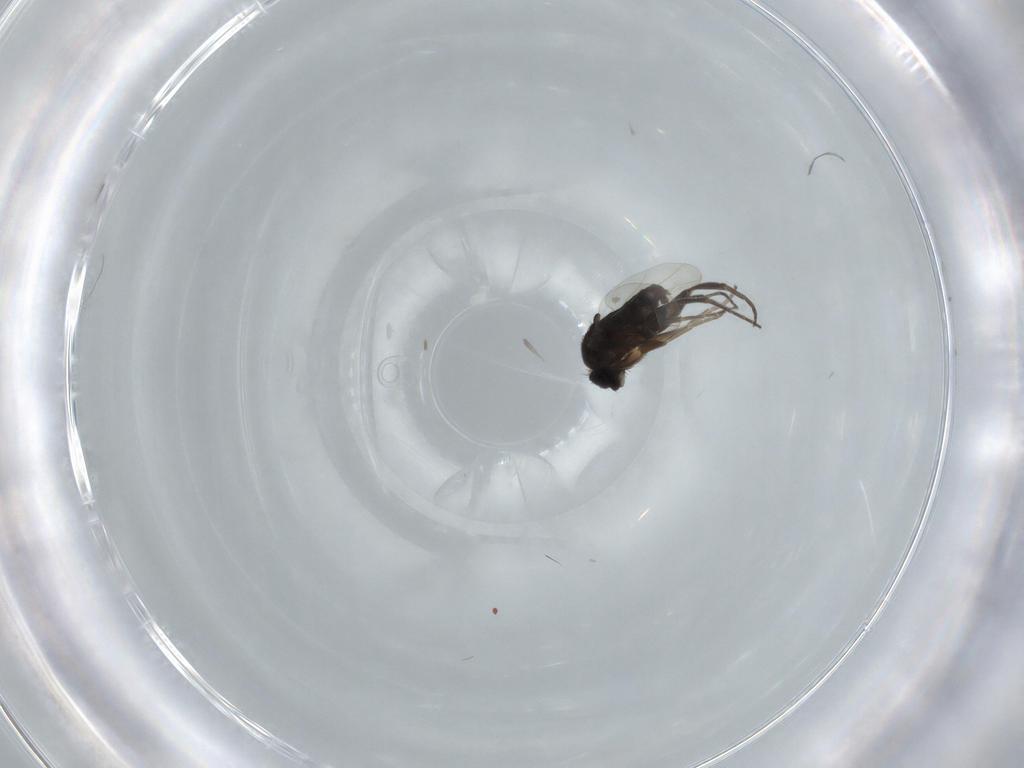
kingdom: Animalia
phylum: Arthropoda
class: Insecta
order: Diptera
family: Phoridae
